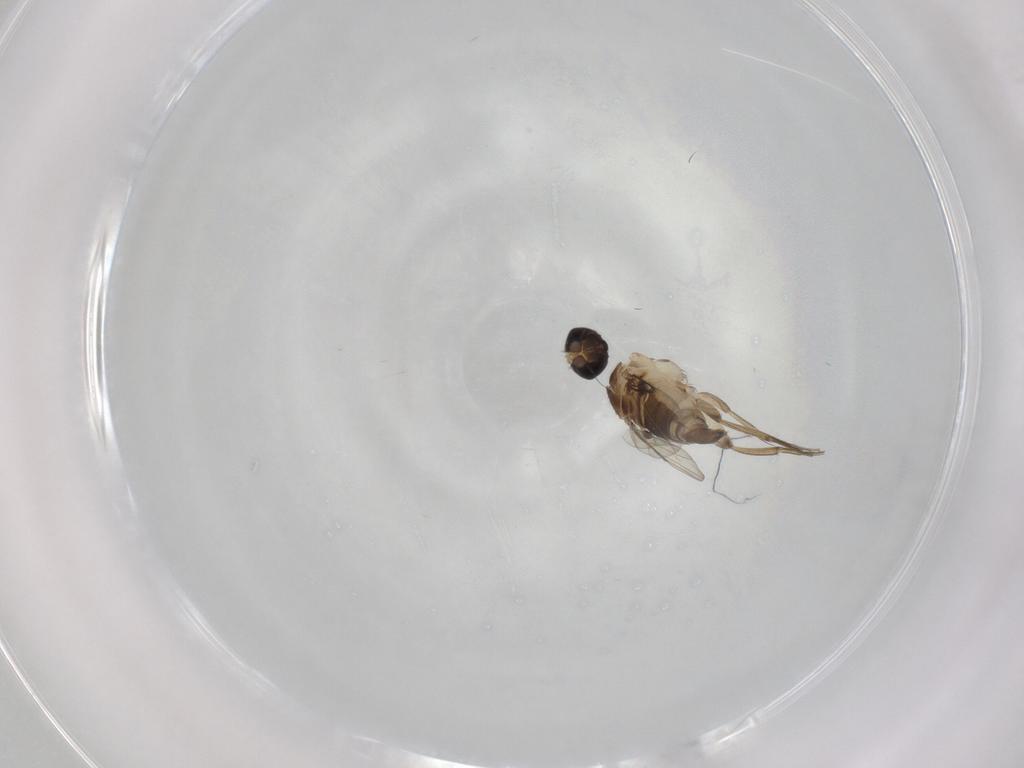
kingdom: Animalia
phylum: Arthropoda
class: Insecta
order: Diptera
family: Phoridae
